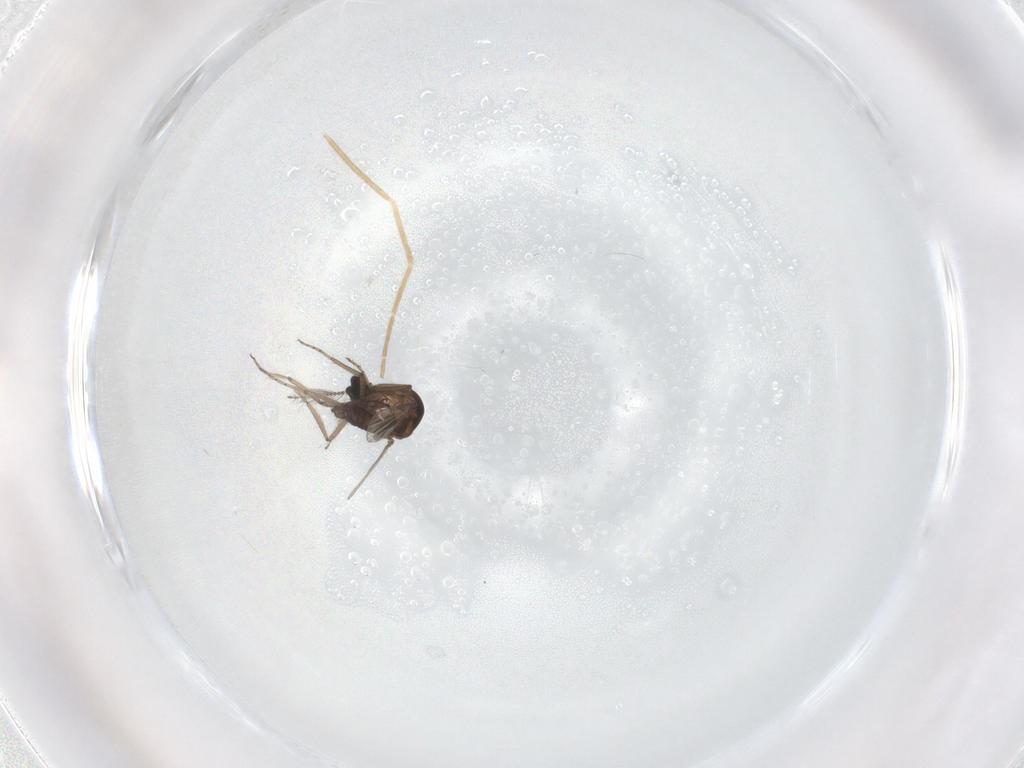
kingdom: Animalia
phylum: Arthropoda
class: Insecta
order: Diptera
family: Ceratopogonidae
